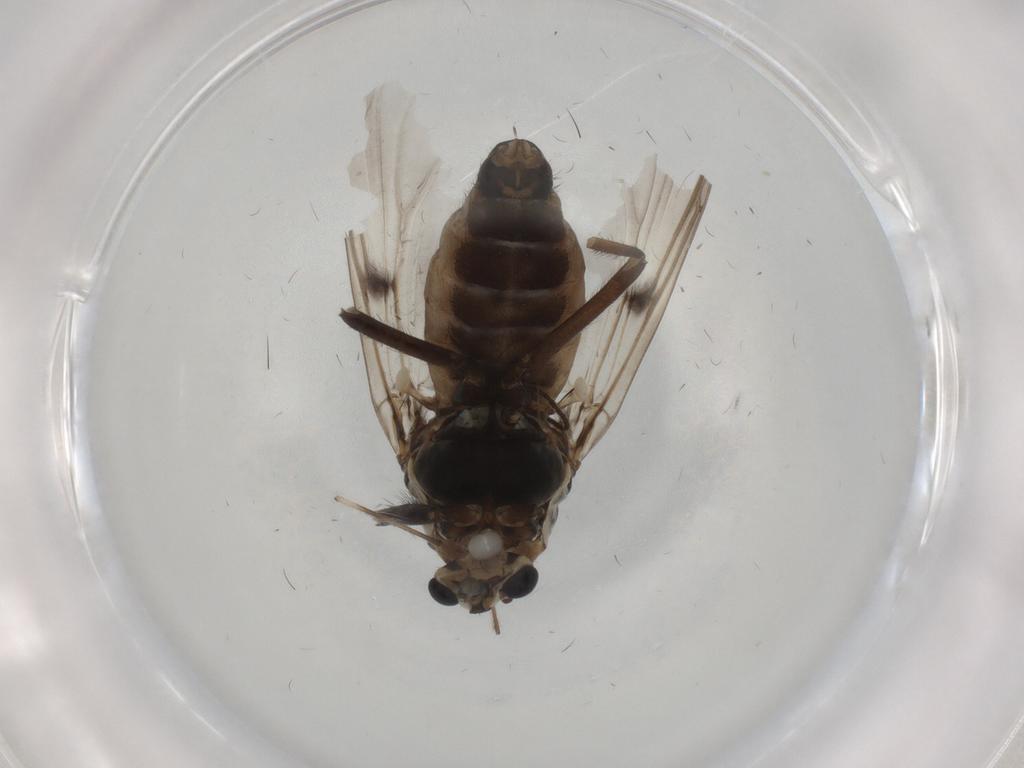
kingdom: Animalia
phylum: Arthropoda
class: Insecta
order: Diptera
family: Chironomidae
